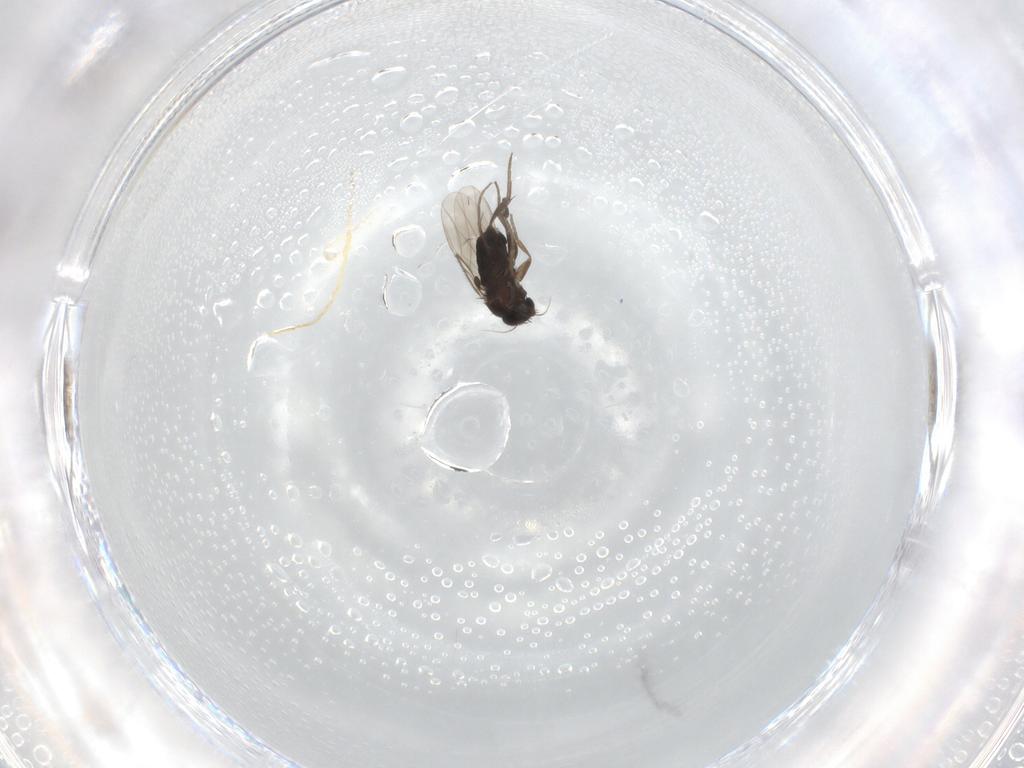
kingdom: Animalia
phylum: Arthropoda
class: Insecta
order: Diptera
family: Phoridae
